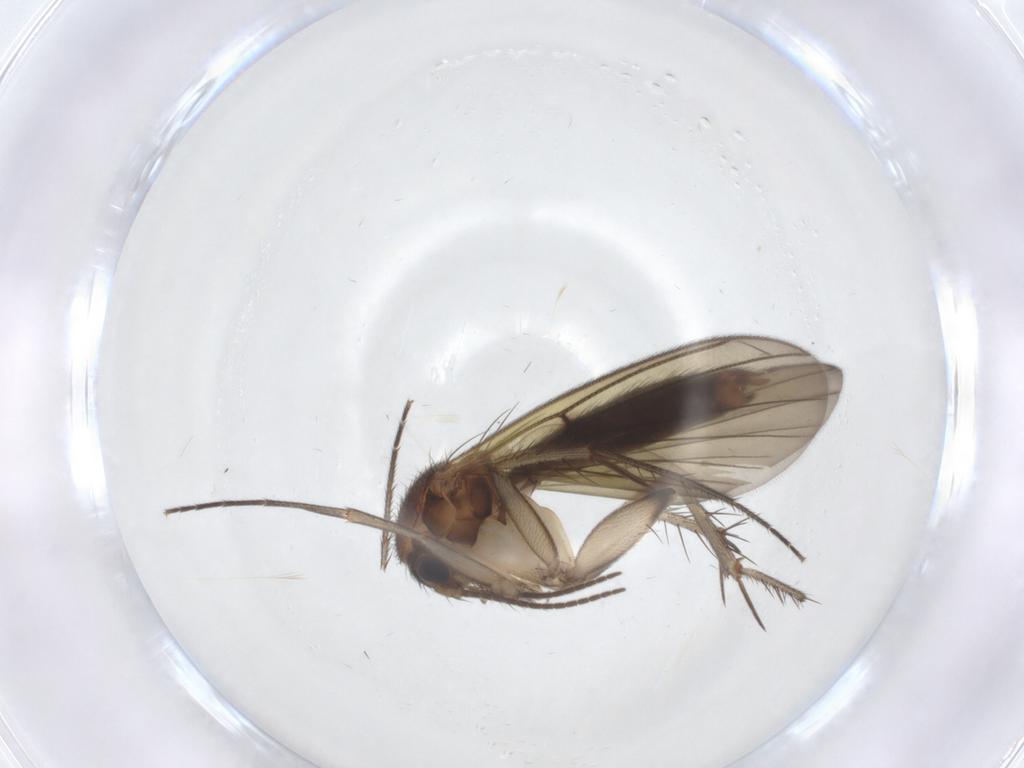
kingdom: Animalia
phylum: Arthropoda
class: Insecta
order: Diptera
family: Mycetophilidae
